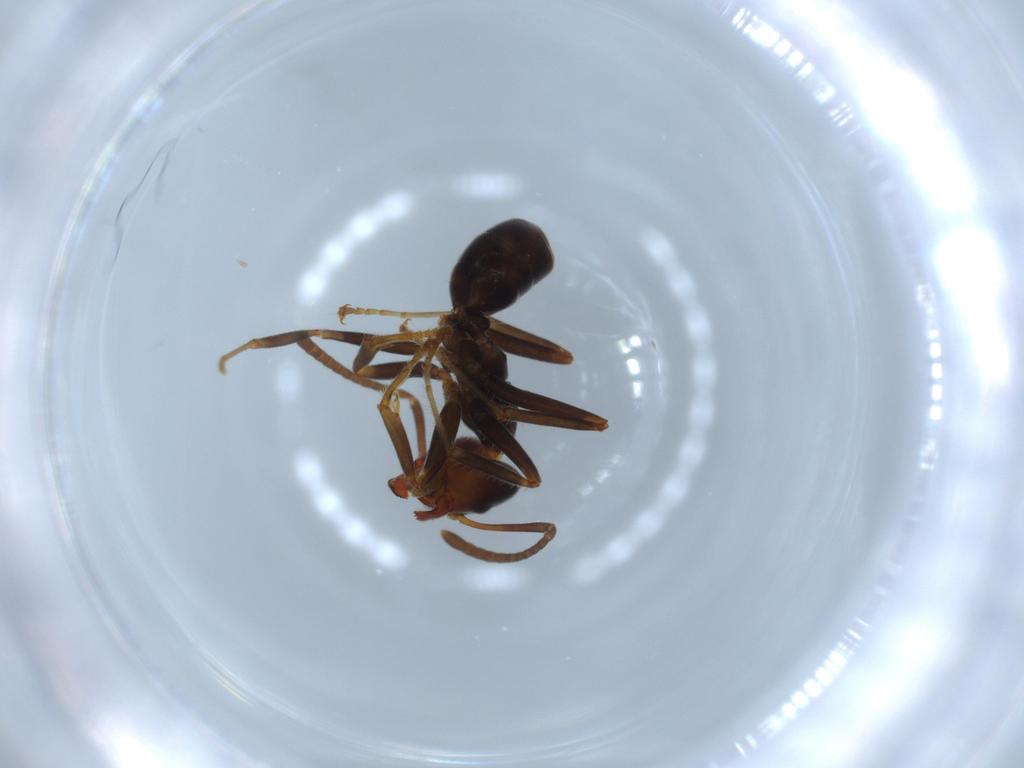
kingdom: Animalia
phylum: Arthropoda
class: Insecta
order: Hymenoptera
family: Formicidae
